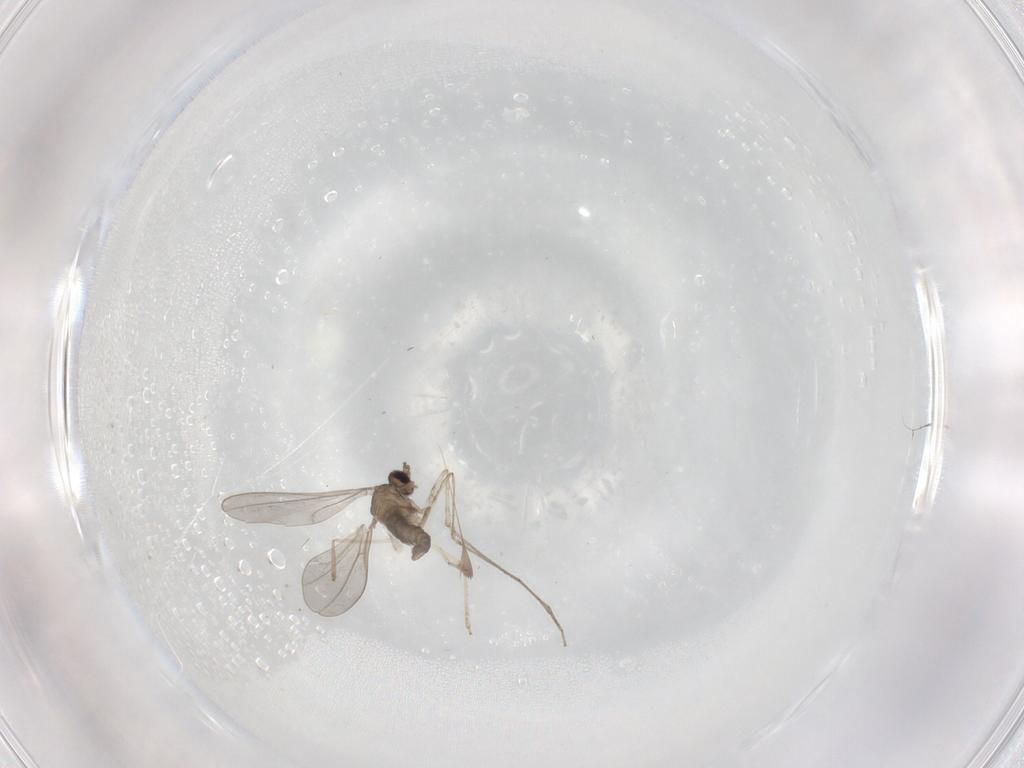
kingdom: Animalia
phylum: Arthropoda
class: Insecta
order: Diptera
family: Cecidomyiidae
